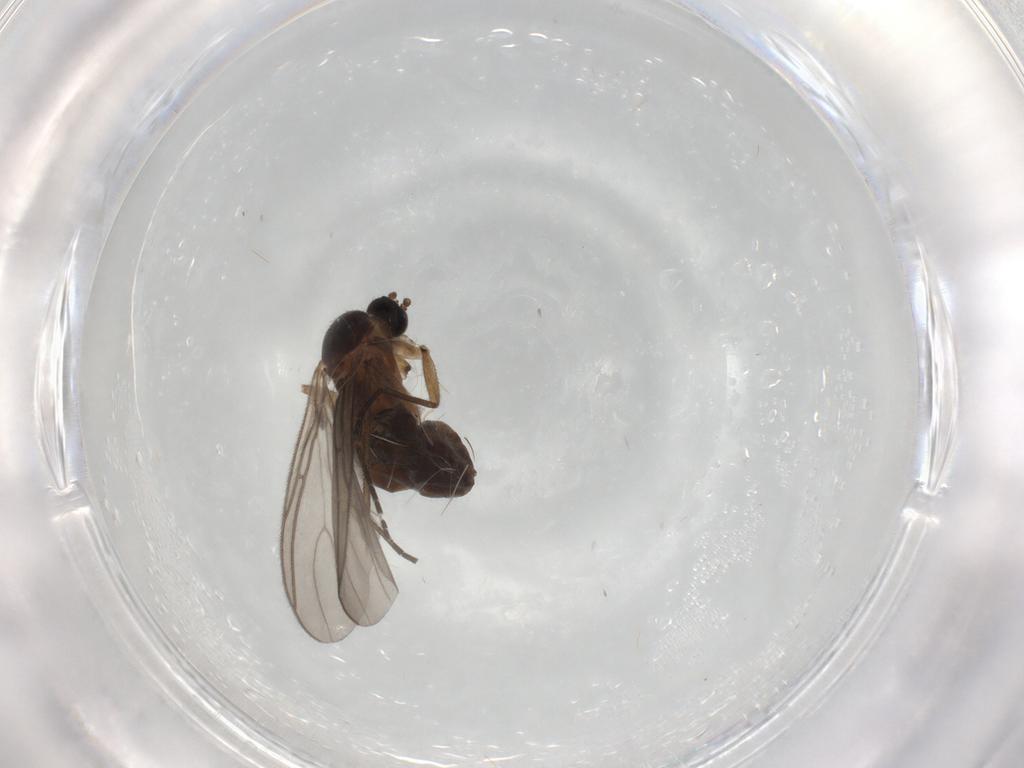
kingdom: Animalia
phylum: Arthropoda
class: Insecta
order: Diptera
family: Sciaridae
